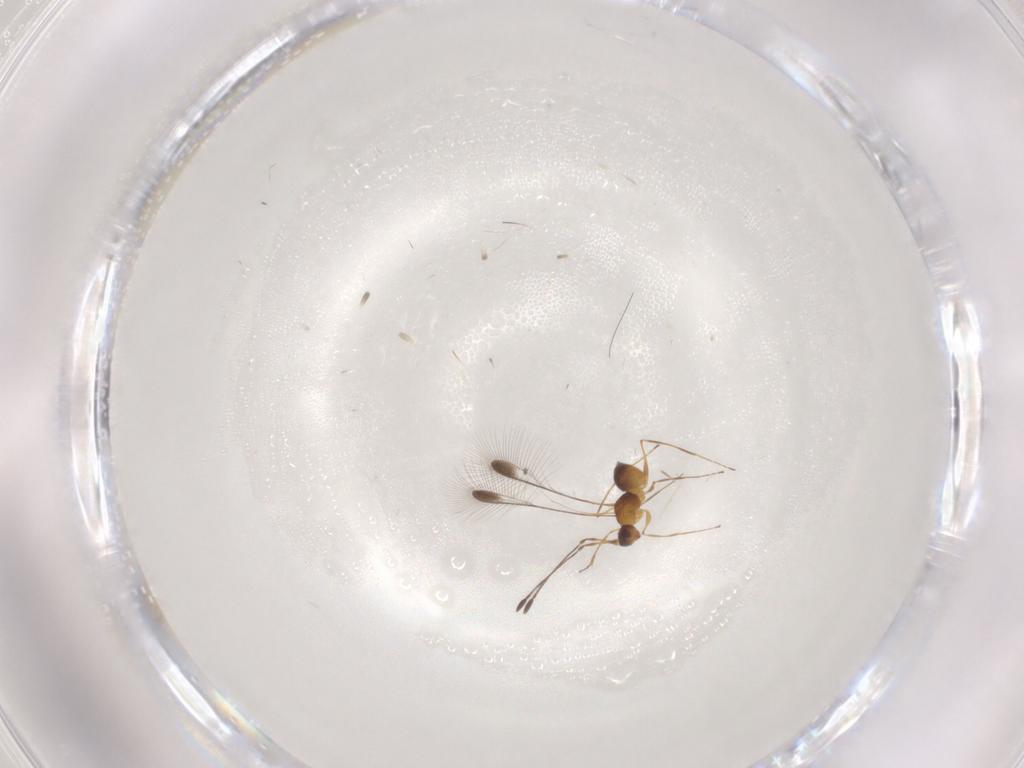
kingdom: Animalia
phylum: Arthropoda
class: Insecta
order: Hymenoptera
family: Mymaridae
